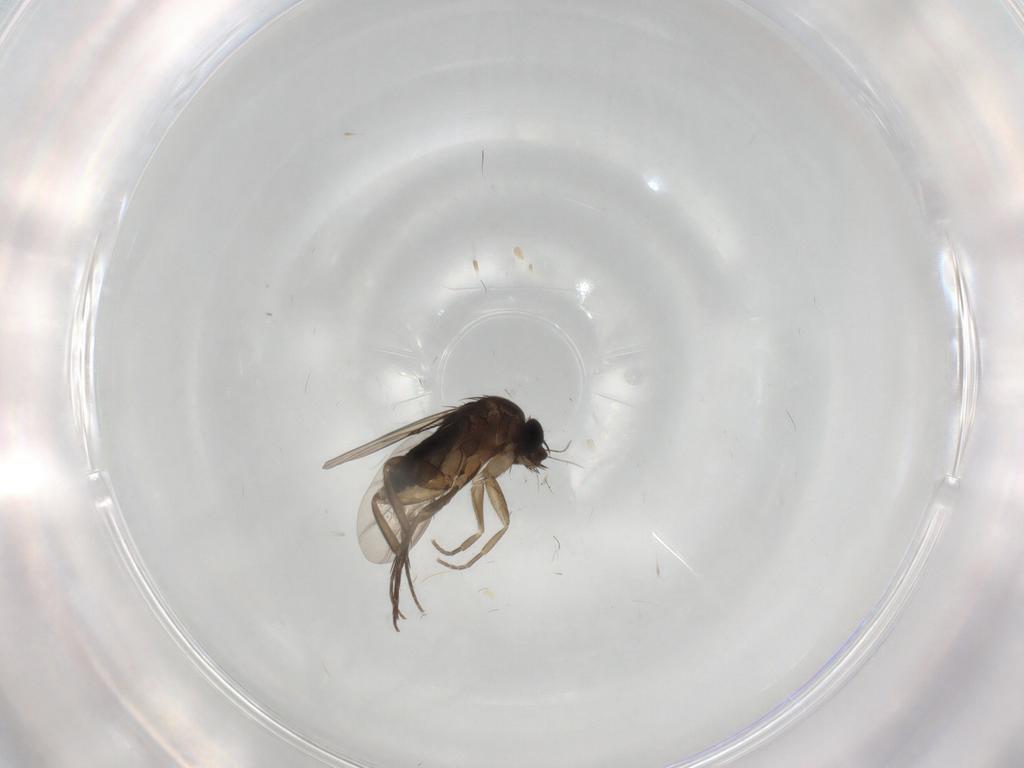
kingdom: Animalia
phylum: Arthropoda
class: Insecta
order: Diptera
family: Phoridae
